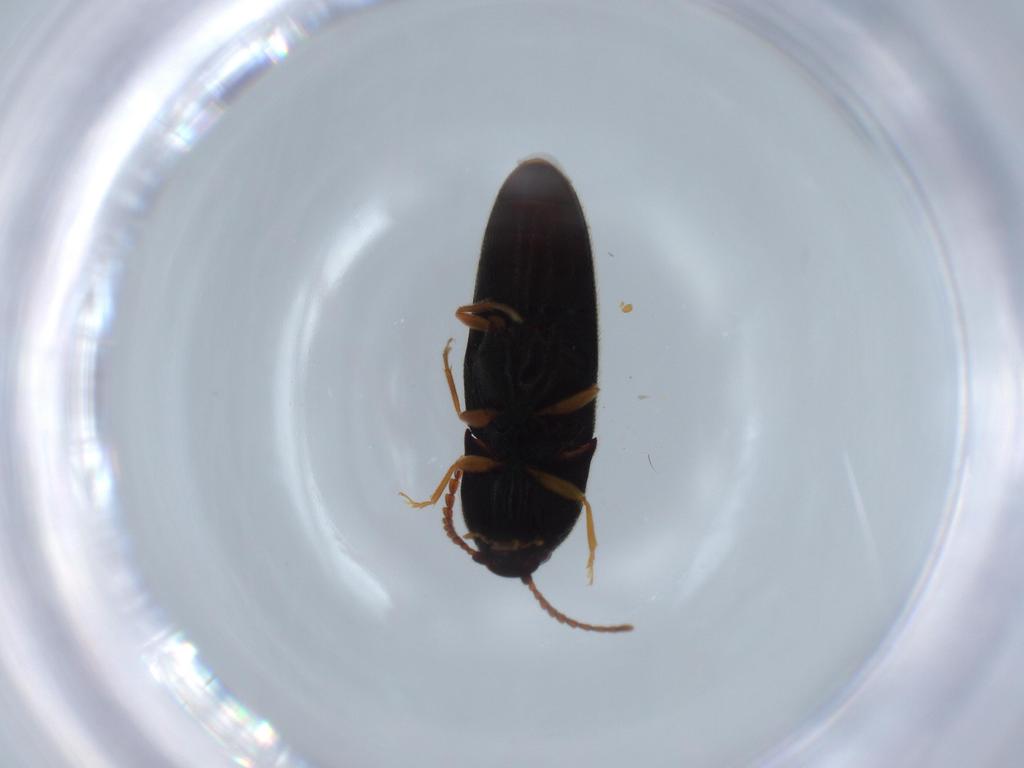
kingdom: Animalia
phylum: Arthropoda
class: Insecta
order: Coleoptera
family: Elateridae
